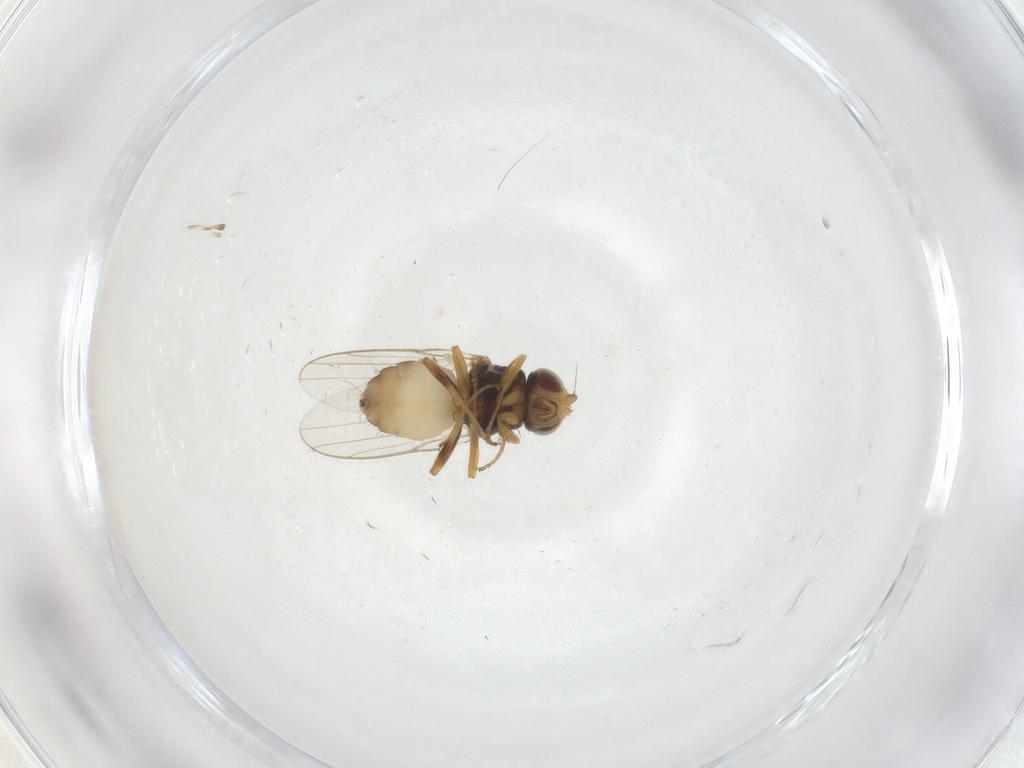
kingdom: Animalia
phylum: Arthropoda
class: Insecta
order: Diptera
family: Chloropidae
